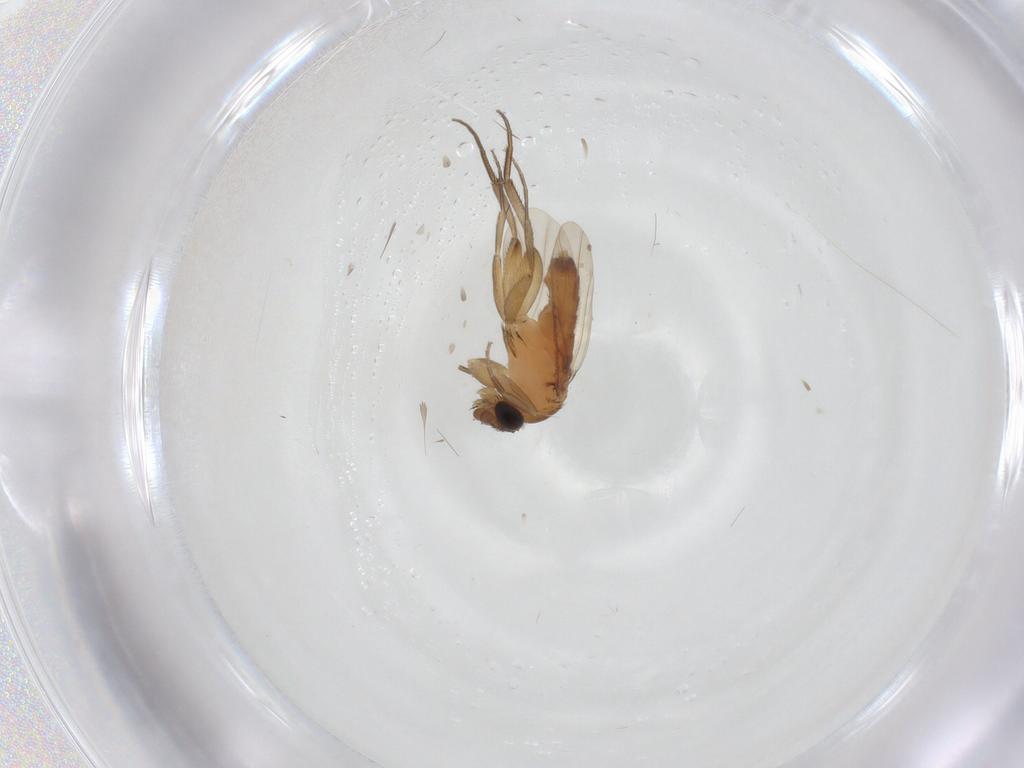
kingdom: Animalia
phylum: Arthropoda
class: Insecta
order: Diptera
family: Phoridae
